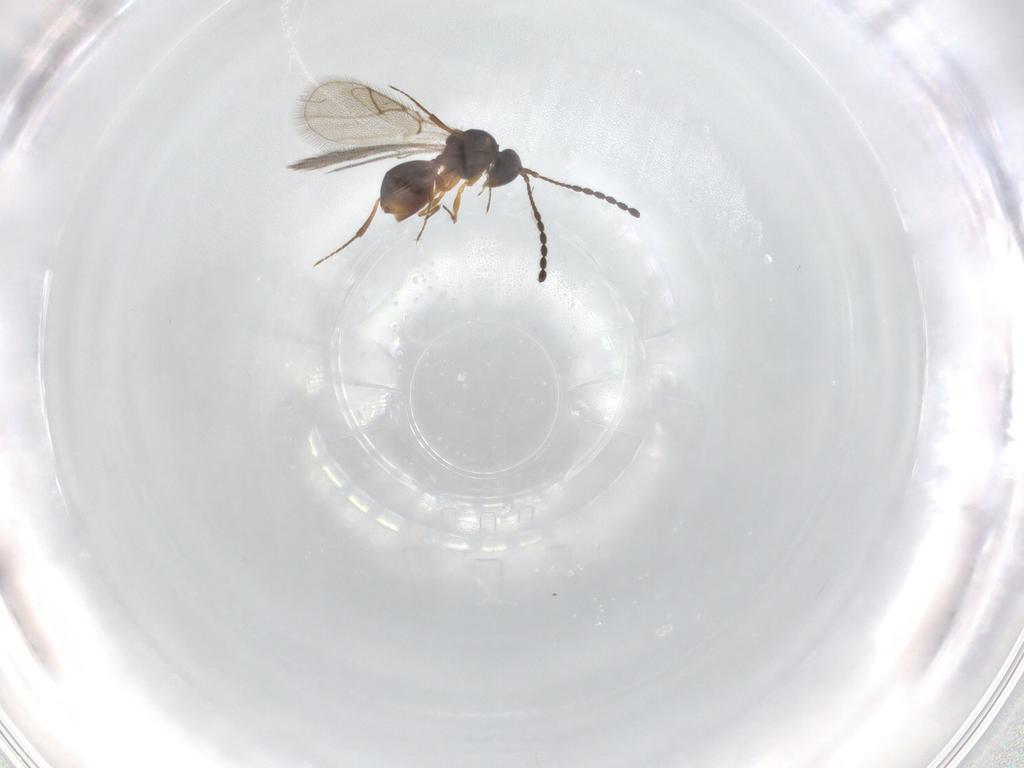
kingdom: Animalia
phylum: Arthropoda
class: Insecta
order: Hymenoptera
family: Figitidae
